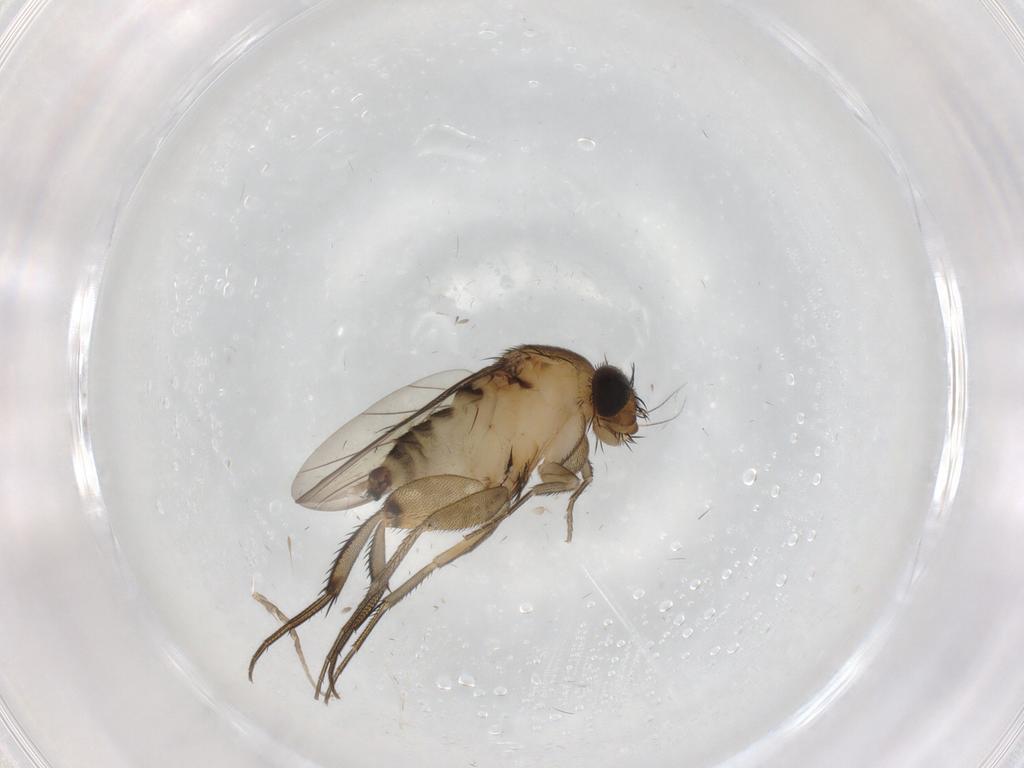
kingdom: Animalia
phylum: Arthropoda
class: Insecta
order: Diptera
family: Phoridae
